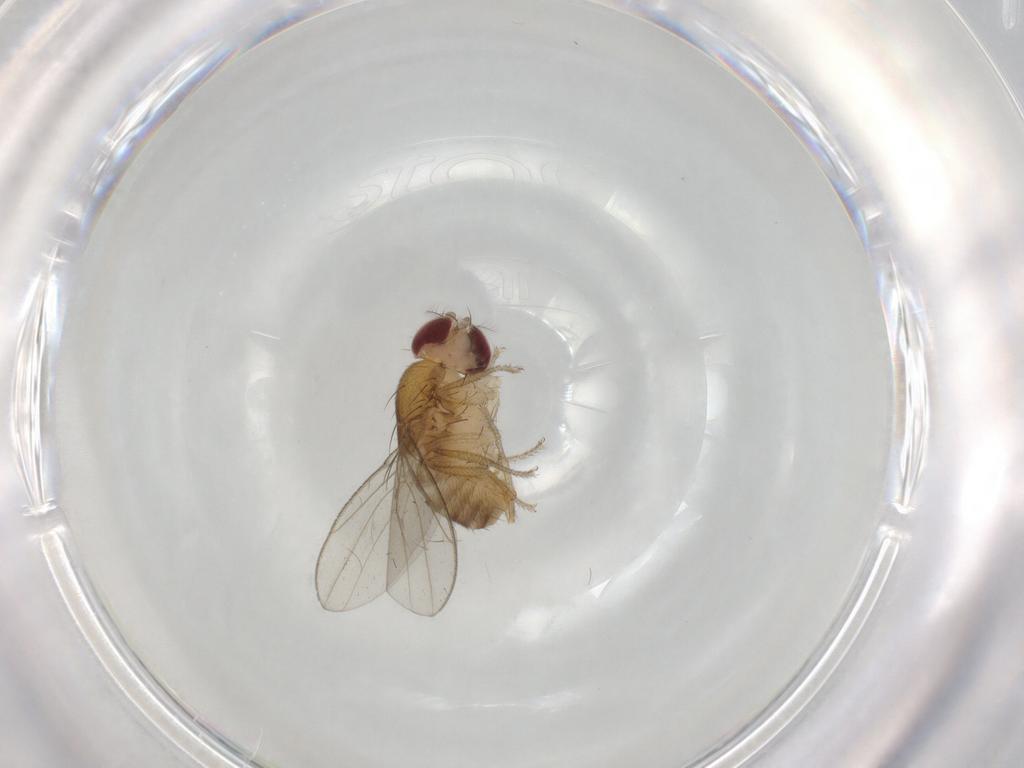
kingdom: Animalia
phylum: Arthropoda
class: Insecta
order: Diptera
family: Drosophilidae
